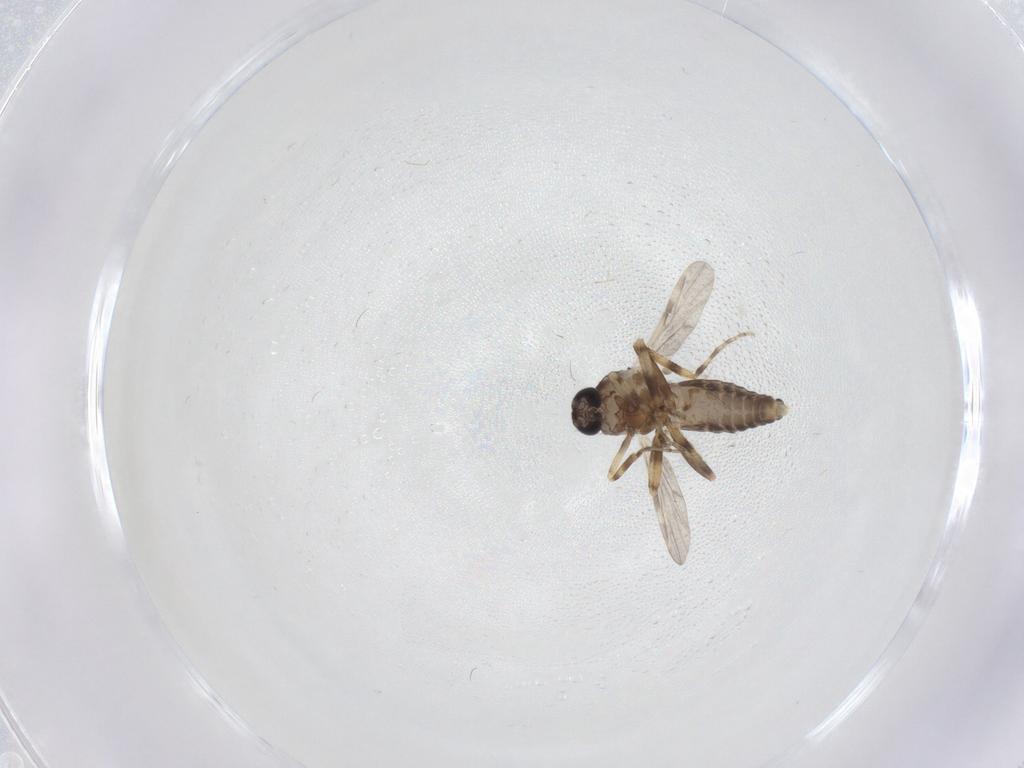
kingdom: Animalia
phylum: Arthropoda
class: Insecta
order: Diptera
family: Ceratopogonidae
